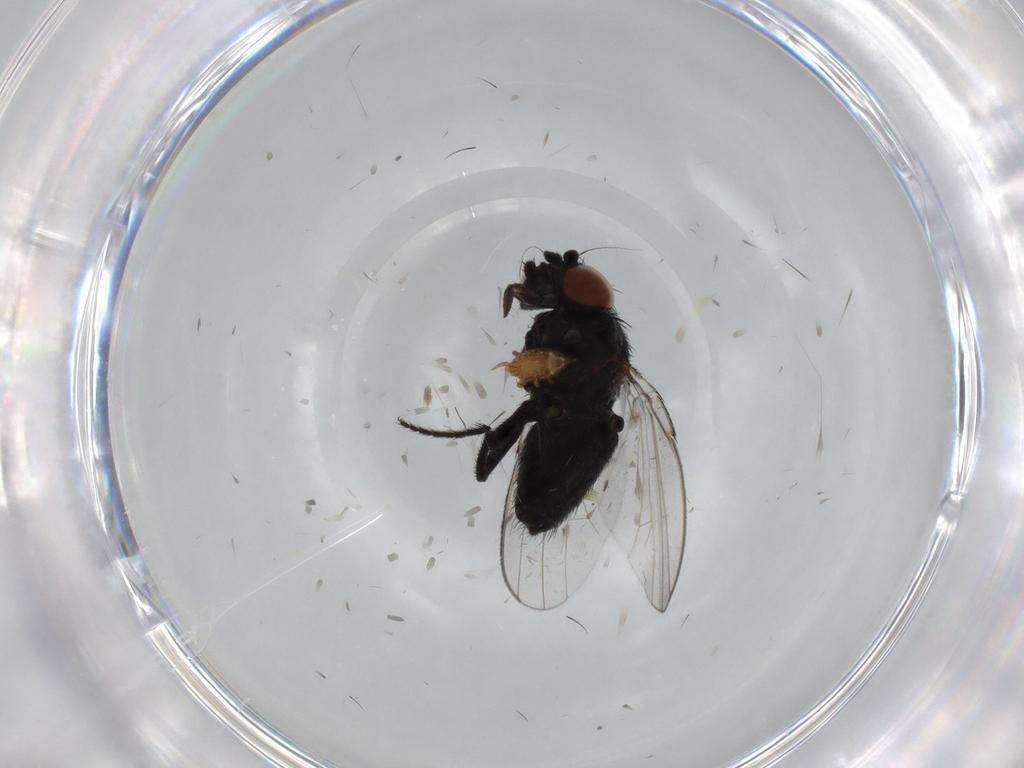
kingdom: Animalia
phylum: Arthropoda
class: Insecta
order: Diptera
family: Milichiidae
